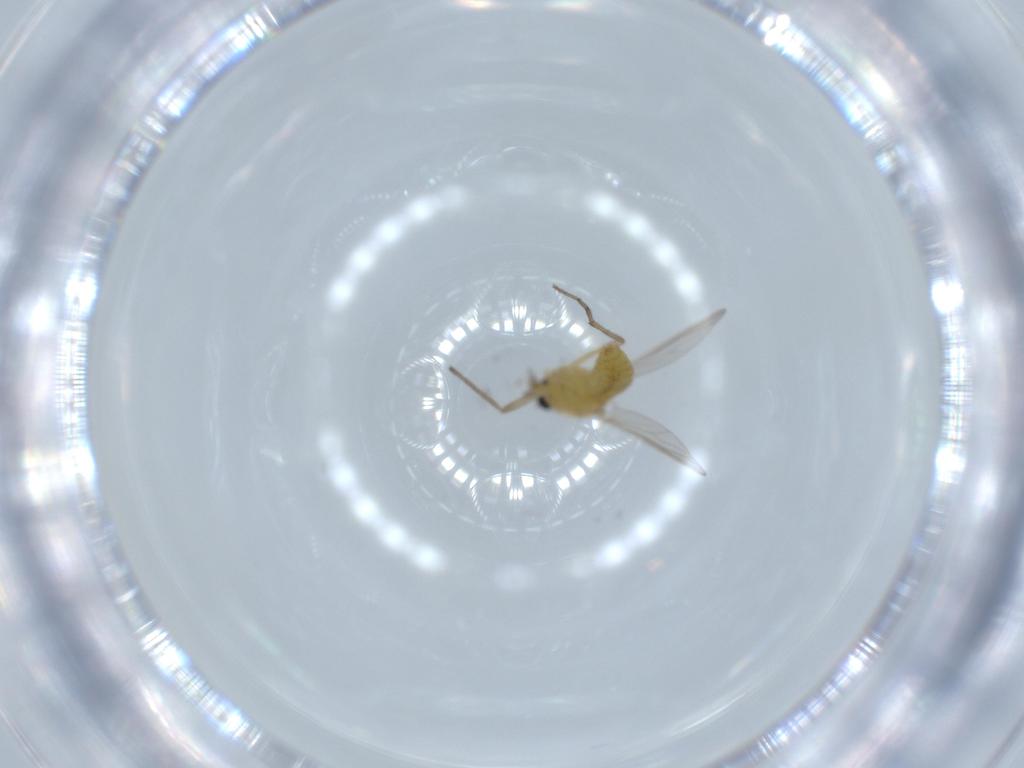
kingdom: Animalia
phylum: Arthropoda
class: Insecta
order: Diptera
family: Chironomidae
